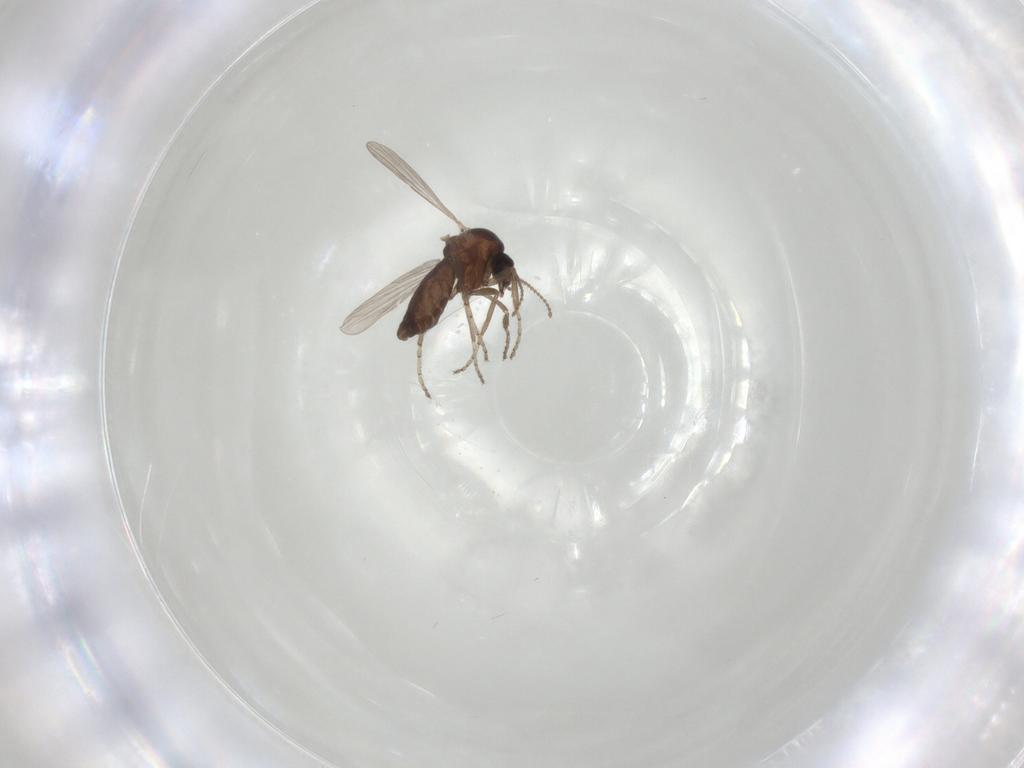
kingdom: Animalia
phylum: Arthropoda
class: Insecta
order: Diptera
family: Ceratopogonidae
